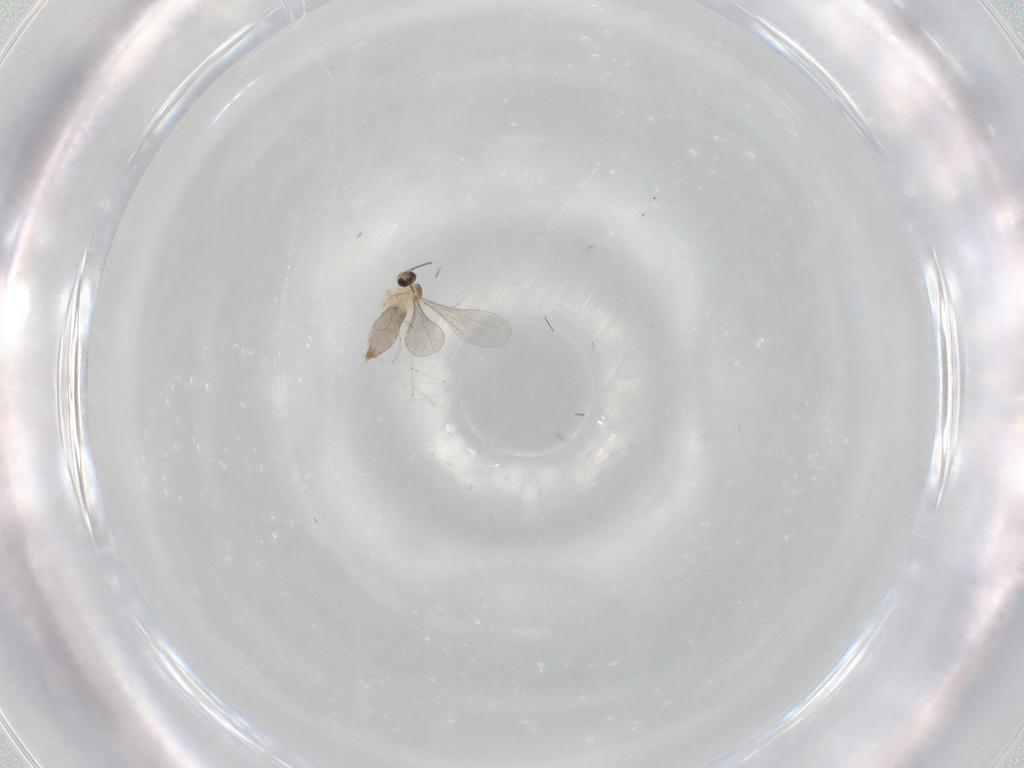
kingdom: Animalia
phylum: Arthropoda
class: Insecta
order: Diptera
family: Cecidomyiidae
